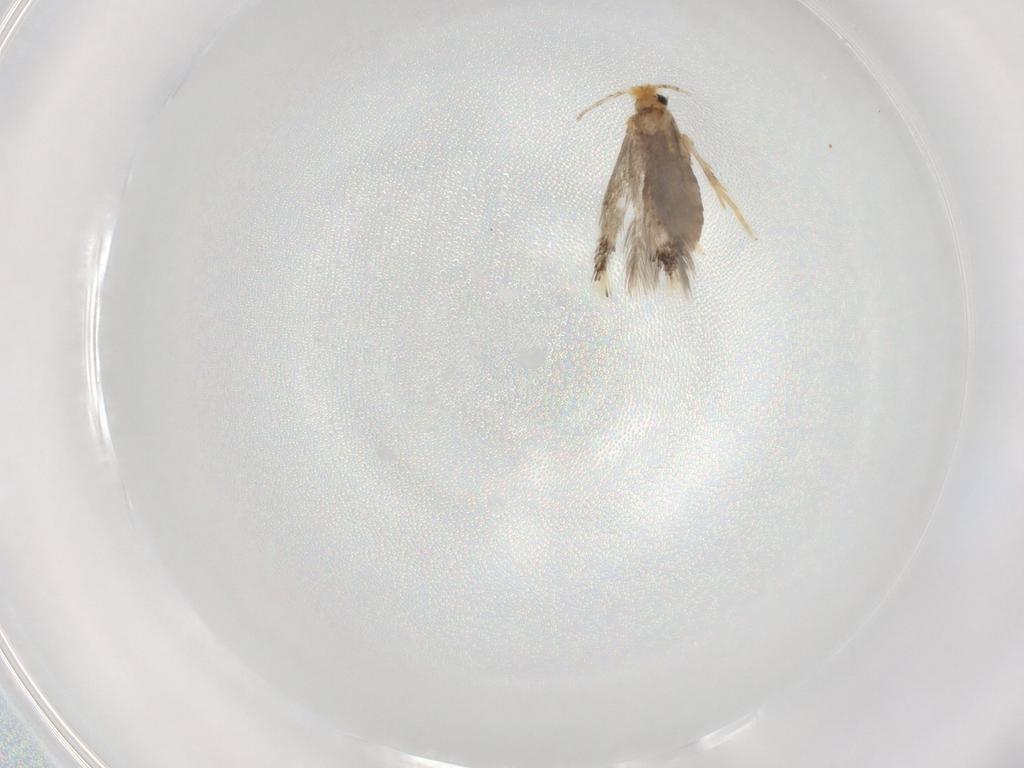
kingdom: Animalia
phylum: Arthropoda
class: Insecta
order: Lepidoptera
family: Nepticulidae
